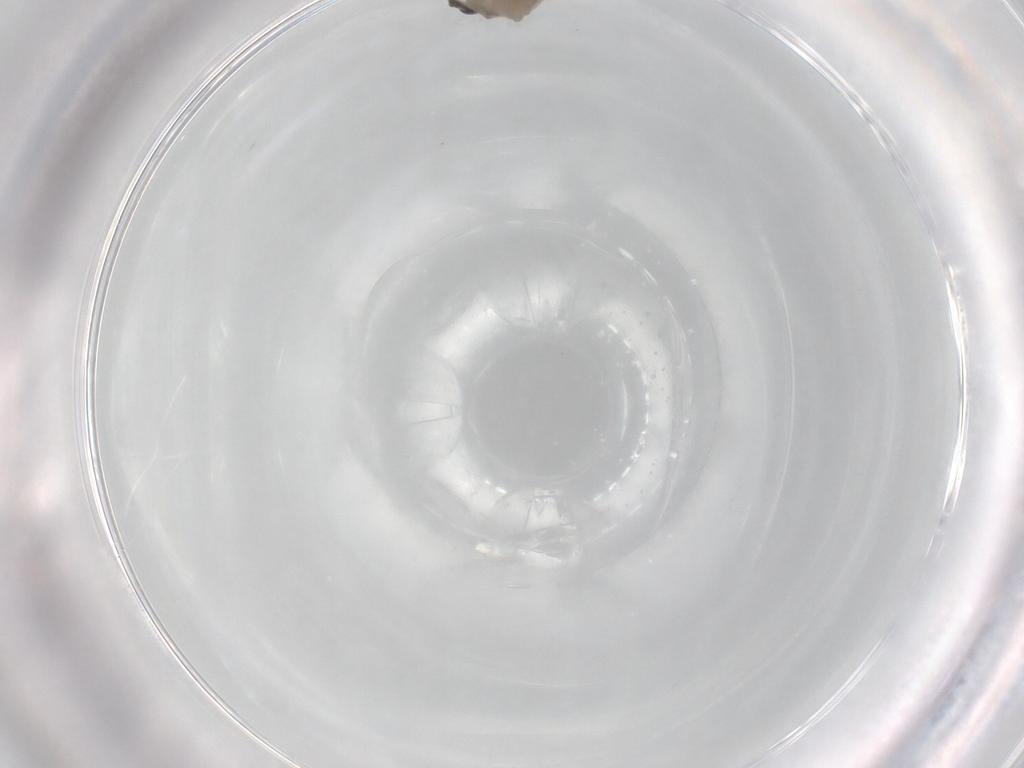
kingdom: Animalia
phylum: Arthropoda
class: Insecta
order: Diptera
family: Cecidomyiidae
